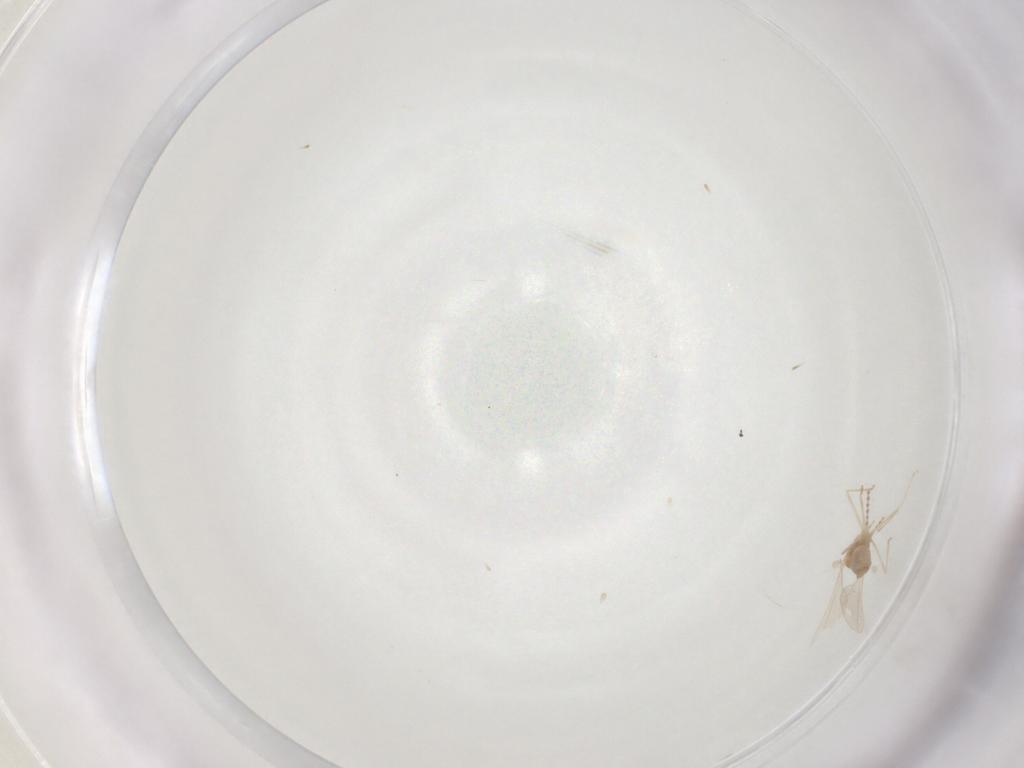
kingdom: Animalia
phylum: Arthropoda
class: Insecta
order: Diptera
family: Cecidomyiidae
